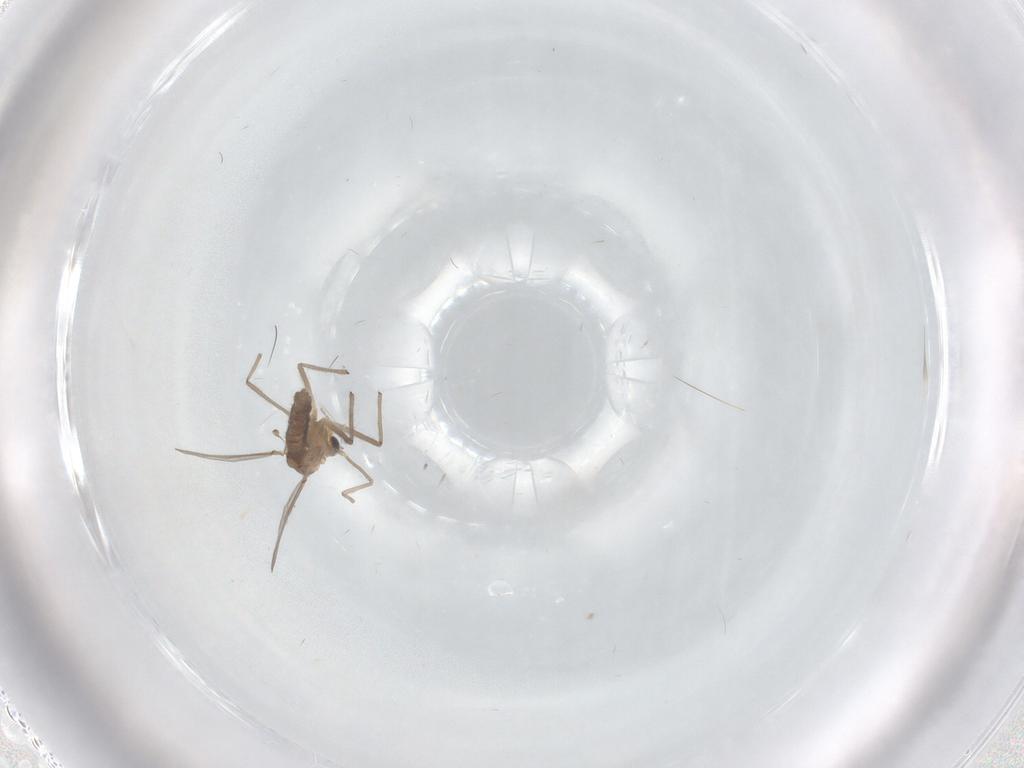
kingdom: Animalia
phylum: Arthropoda
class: Insecta
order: Diptera
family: Chironomidae
